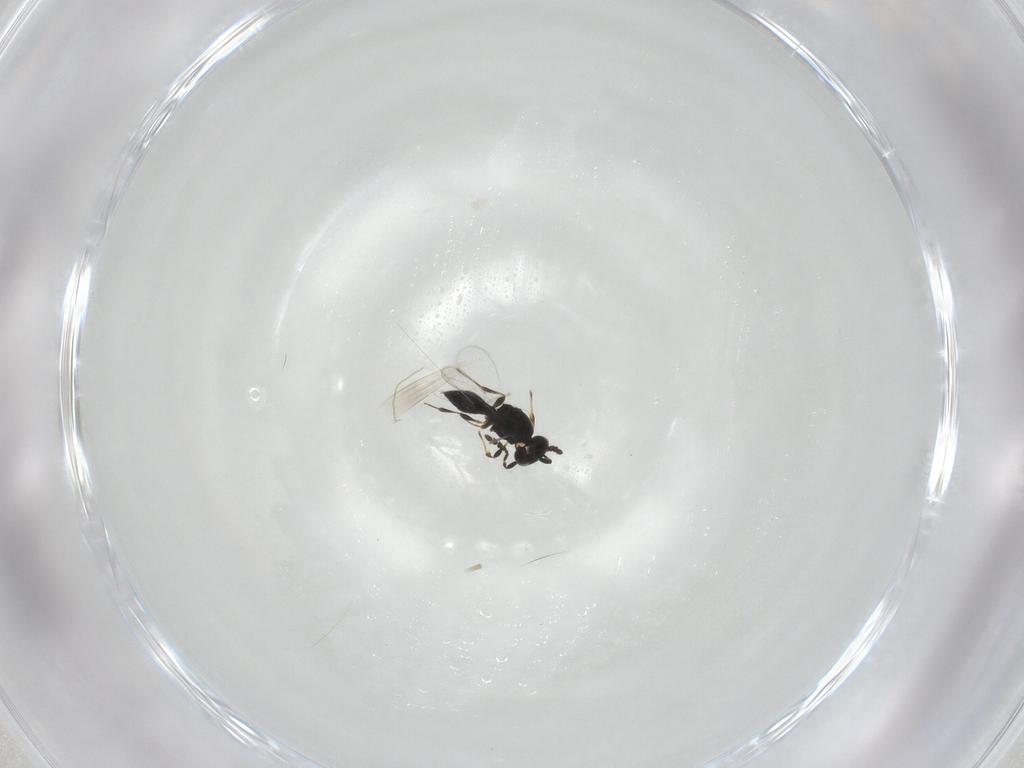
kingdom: Animalia
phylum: Arthropoda
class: Insecta
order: Hymenoptera
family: Platygastridae
